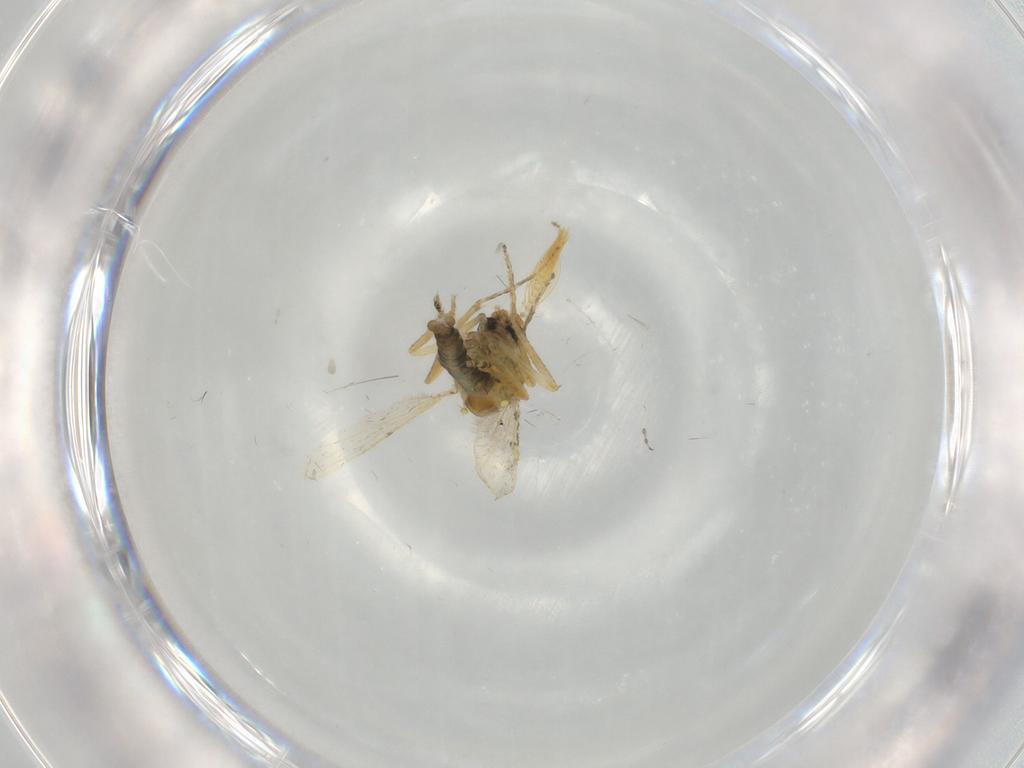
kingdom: Animalia
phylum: Arthropoda
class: Insecta
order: Diptera
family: Ceratopogonidae
